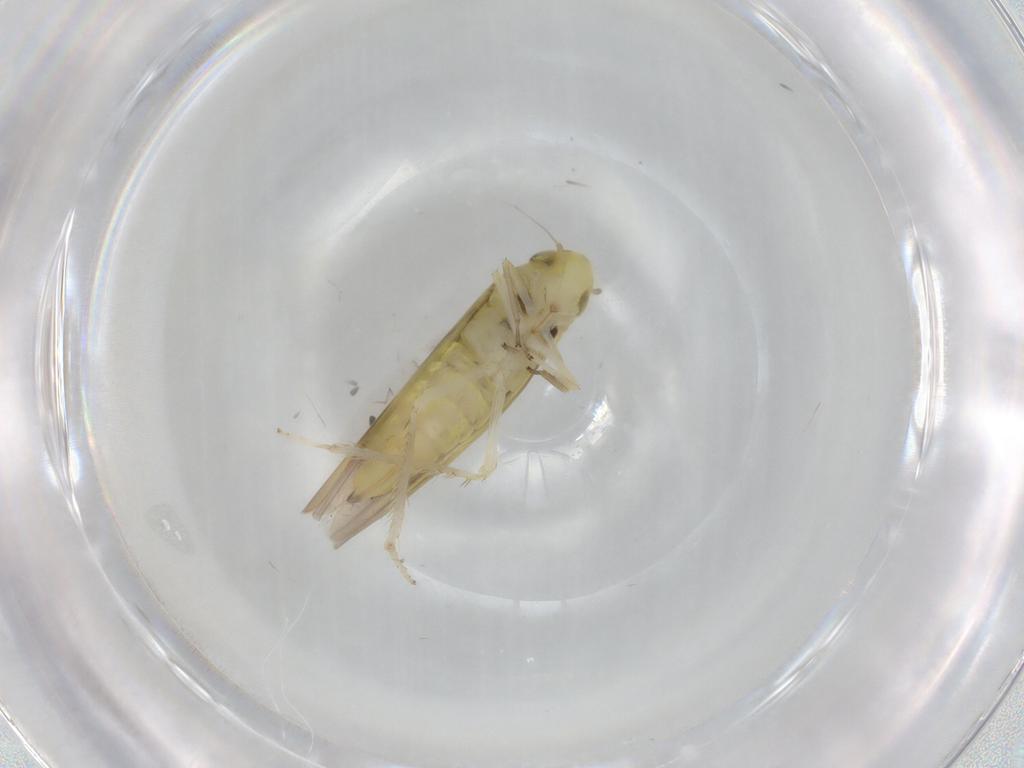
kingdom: Animalia
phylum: Arthropoda
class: Insecta
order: Hemiptera
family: Cicadellidae
